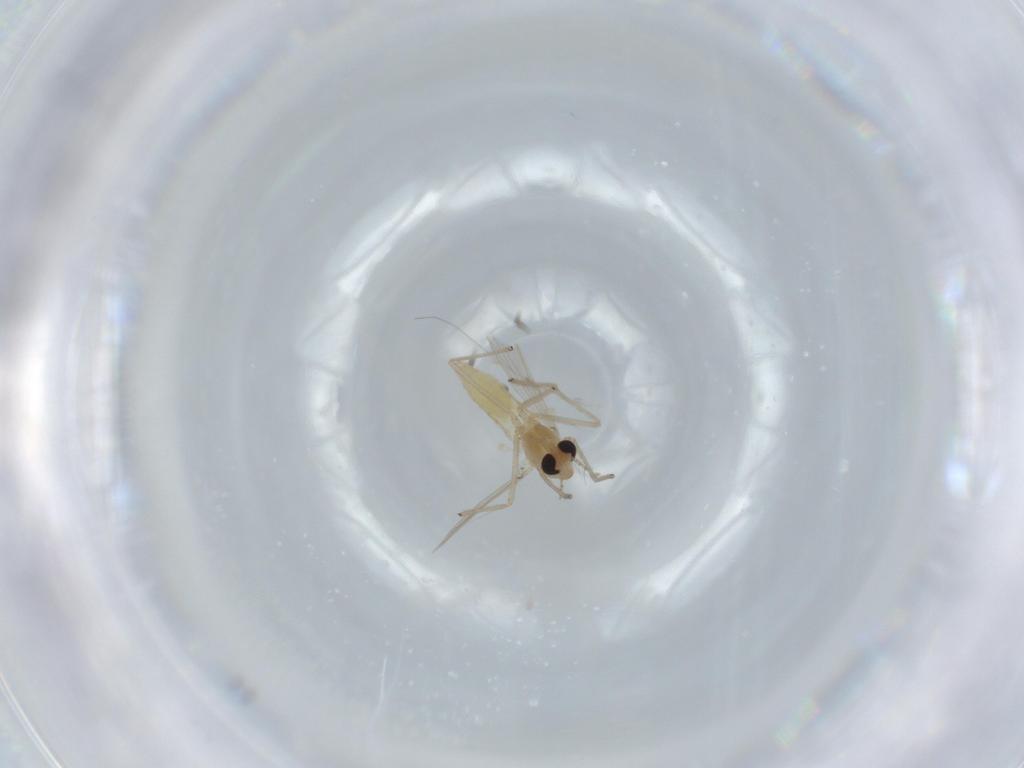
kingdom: Animalia
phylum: Arthropoda
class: Insecta
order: Diptera
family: Chironomidae
